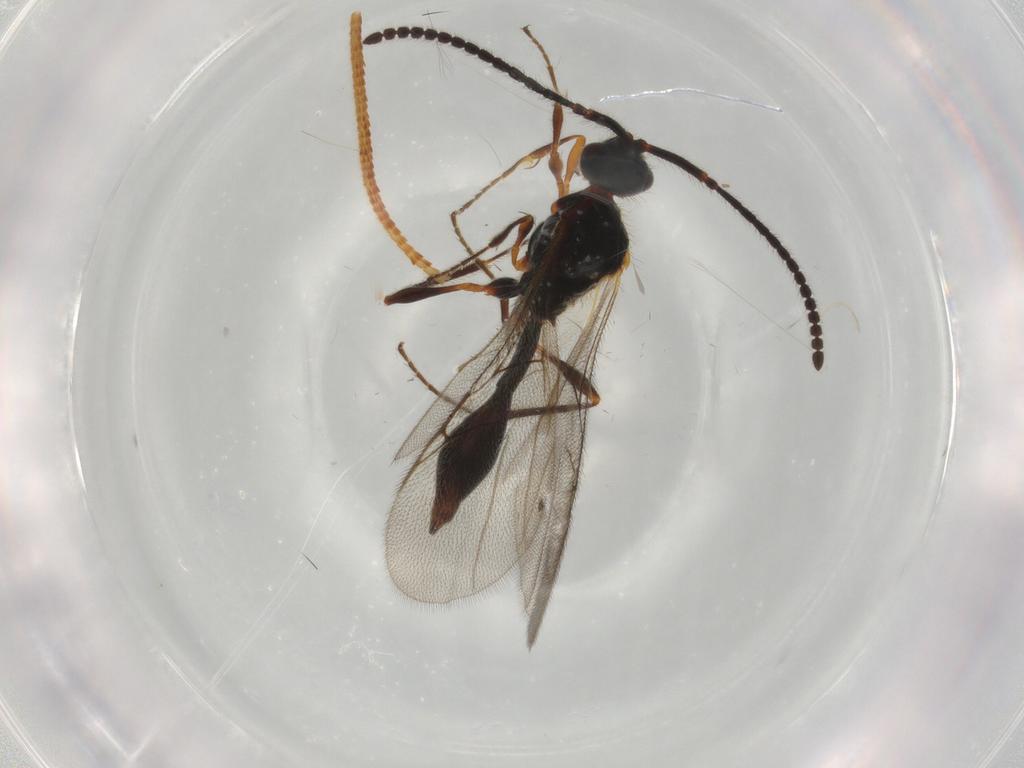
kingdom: Animalia
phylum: Arthropoda
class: Insecta
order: Hymenoptera
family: Diapriidae
